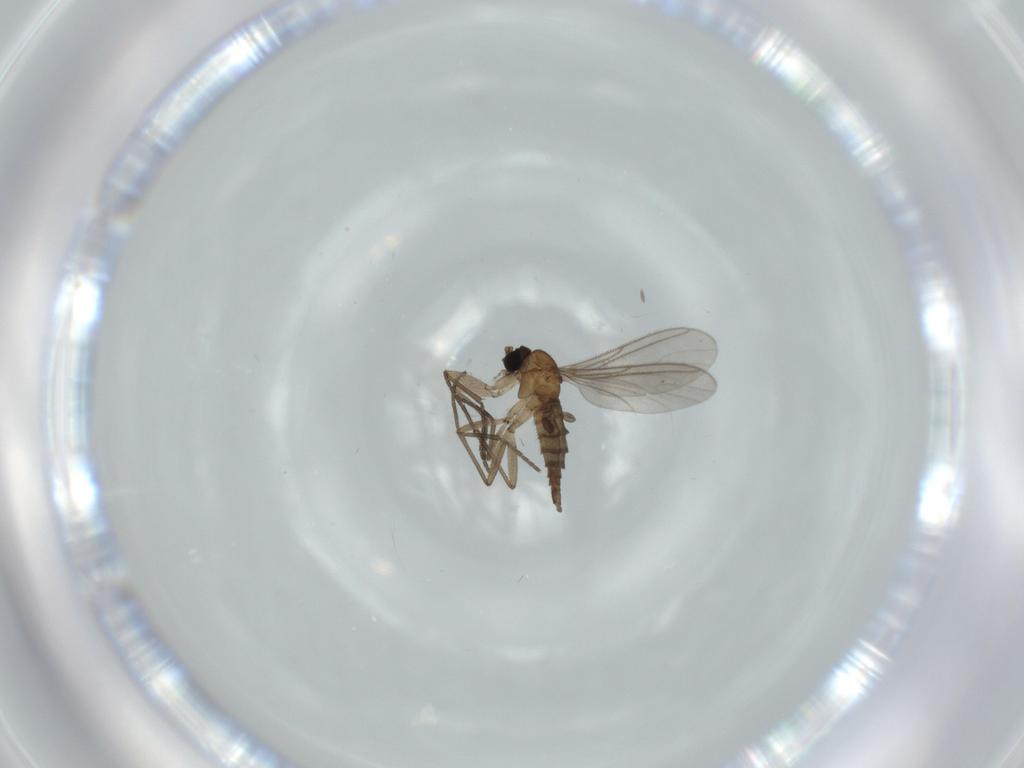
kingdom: Animalia
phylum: Arthropoda
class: Insecta
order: Diptera
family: Sciaridae
